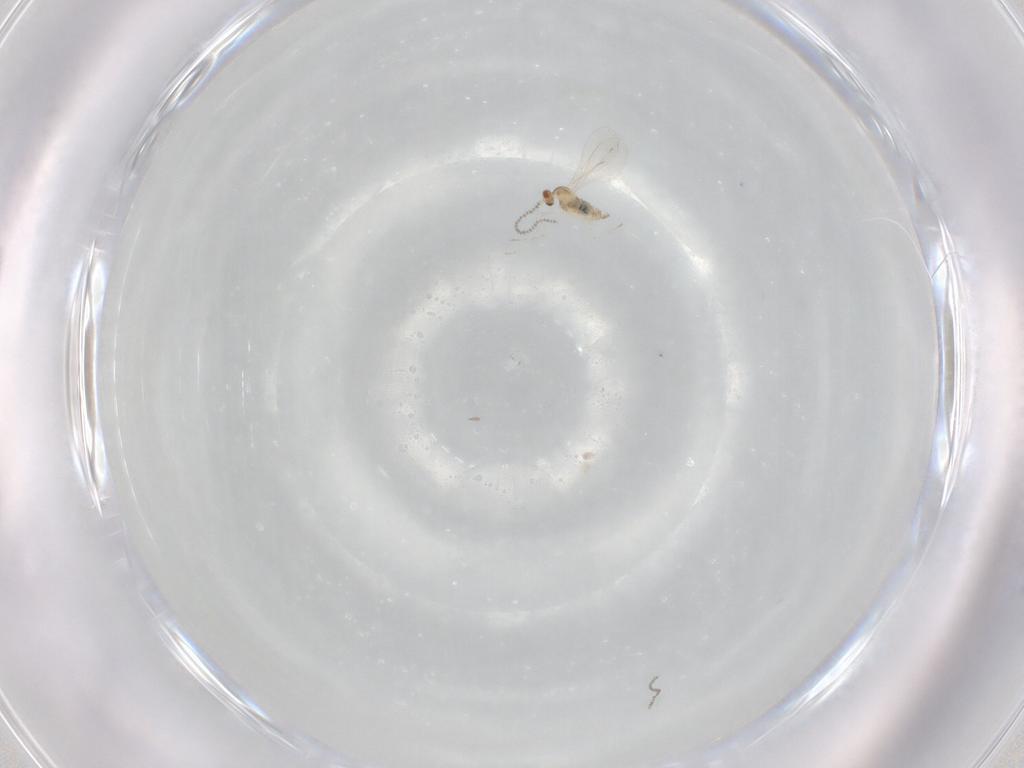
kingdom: Animalia
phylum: Arthropoda
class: Insecta
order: Diptera
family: Cecidomyiidae
